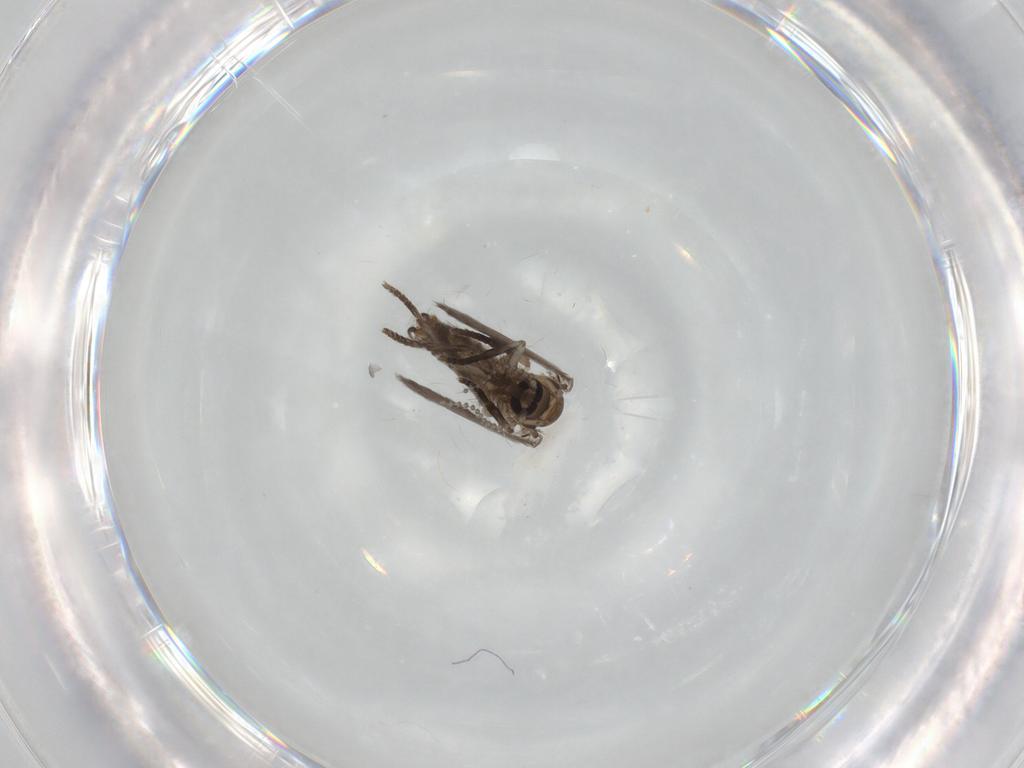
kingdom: Animalia
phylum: Arthropoda
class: Insecta
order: Diptera
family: Psychodidae
